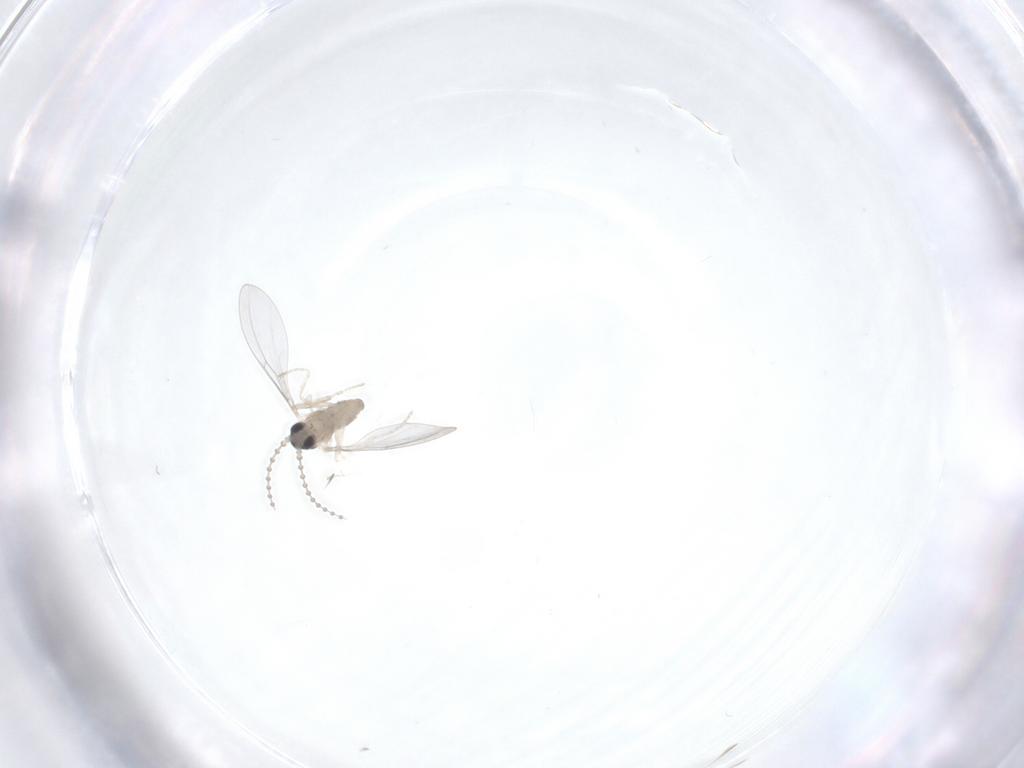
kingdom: Animalia
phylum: Arthropoda
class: Insecta
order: Diptera
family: Cecidomyiidae
